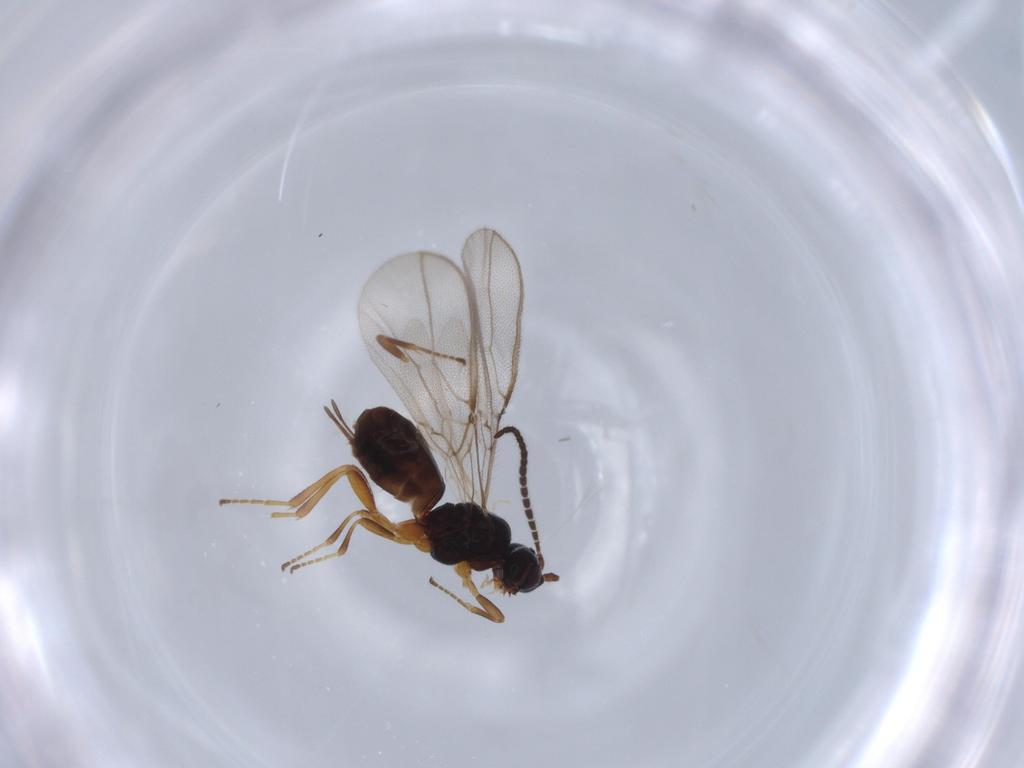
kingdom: Animalia
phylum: Arthropoda
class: Insecta
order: Hymenoptera
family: Braconidae
